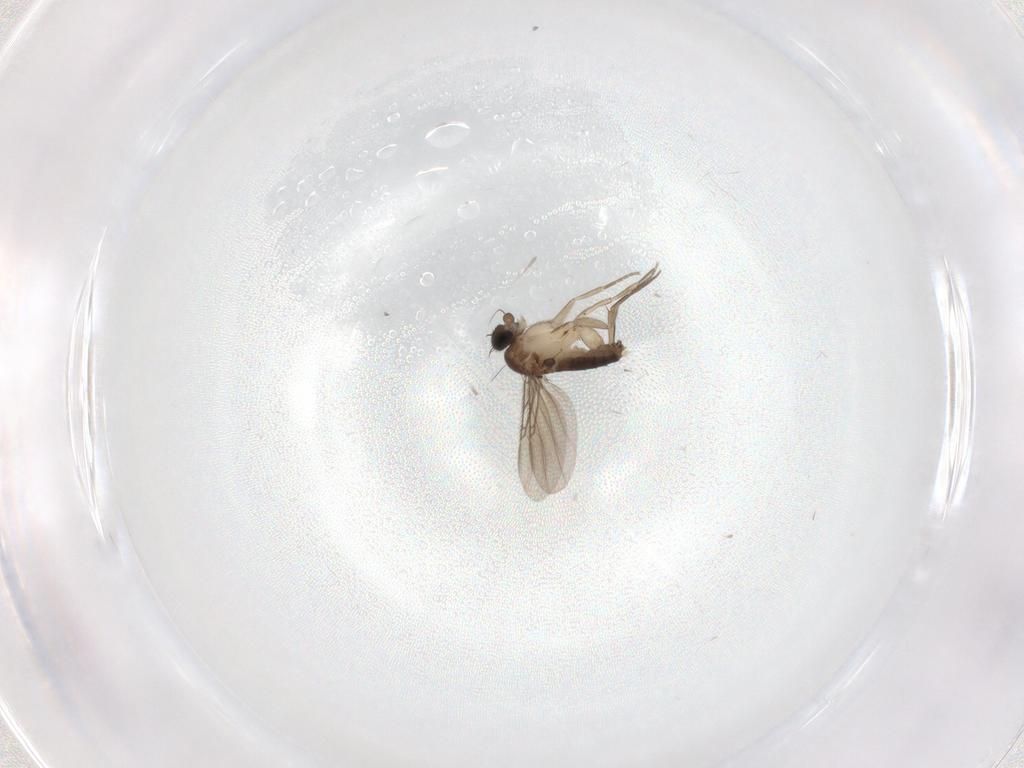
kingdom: Animalia
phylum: Arthropoda
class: Insecta
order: Diptera
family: Phoridae
